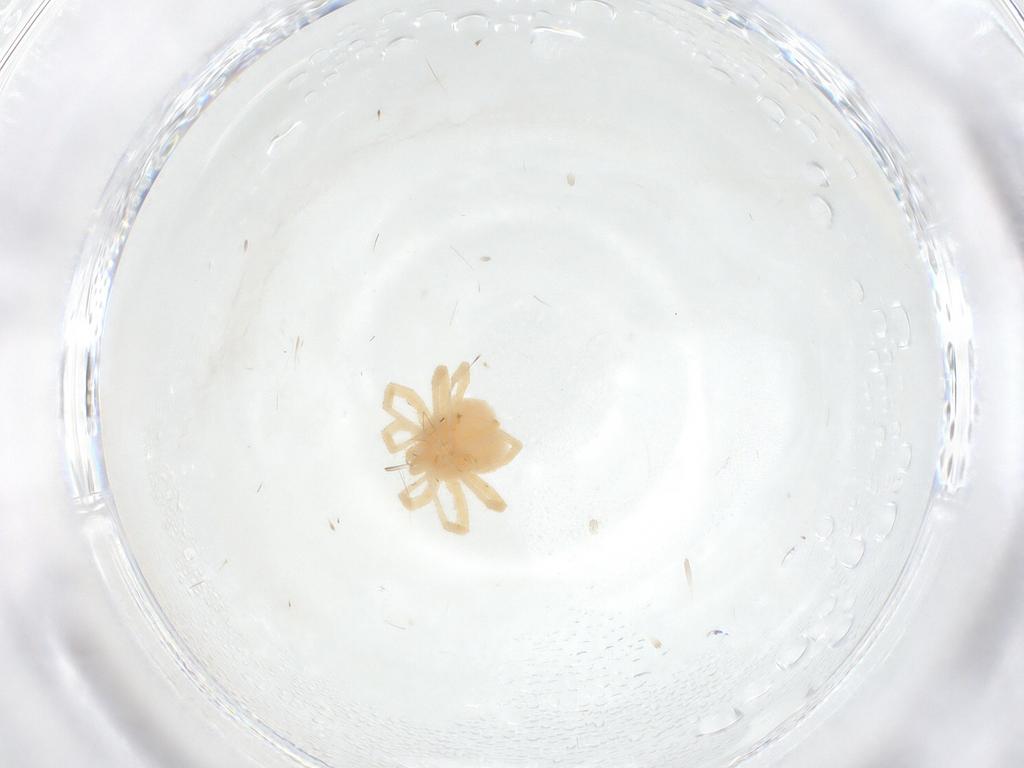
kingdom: Animalia
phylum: Arthropoda
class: Arachnida
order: Trombidiformes
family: Anystidae
